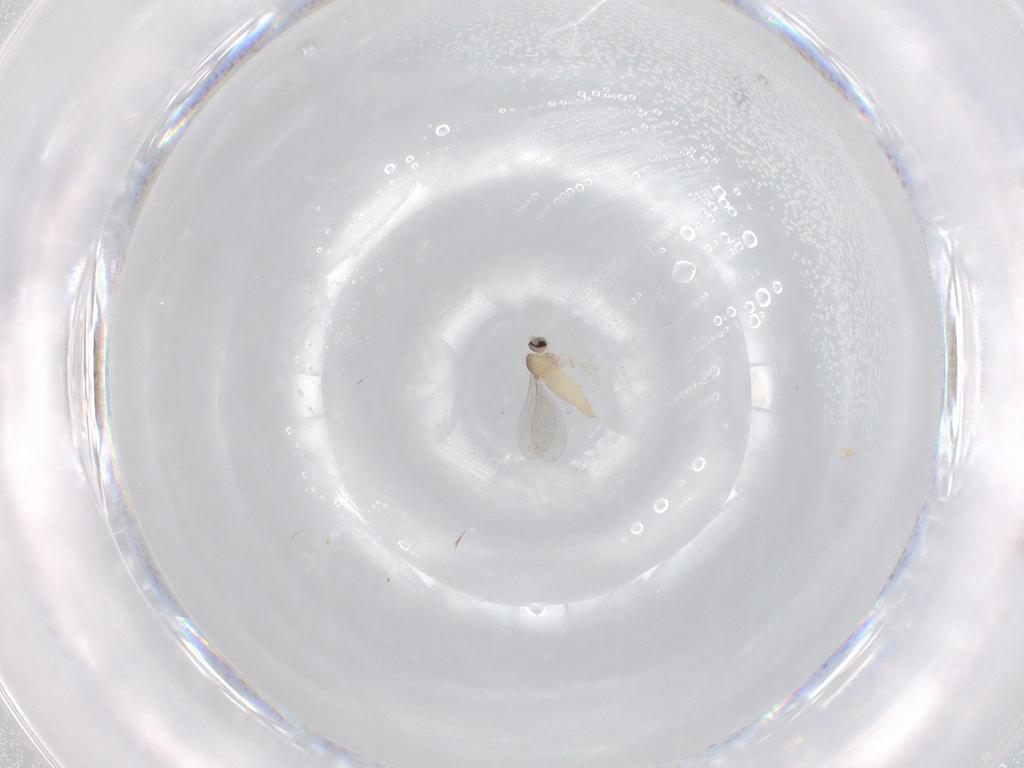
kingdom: Animalia
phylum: Arthropoda
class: Insecta
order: Diptera
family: Cecidomyiidae
